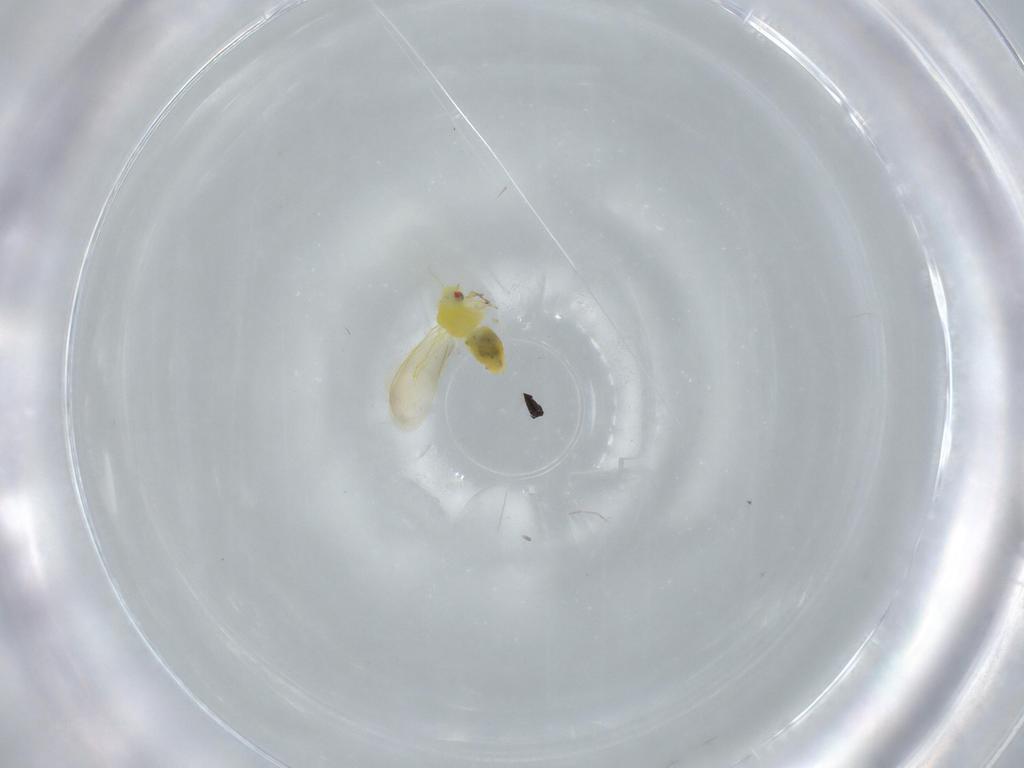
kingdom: Animalia
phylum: Arthropoda
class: Insecta
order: Hemiptera
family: Aleyrodidae
